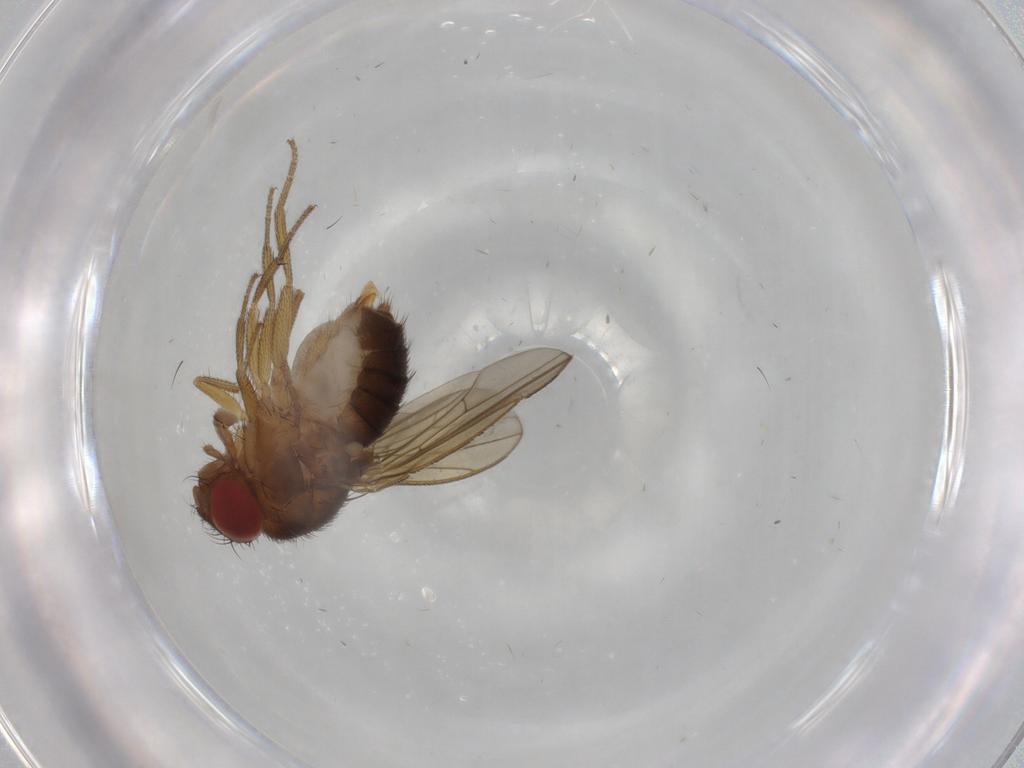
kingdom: Animalia
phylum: Arthropoda
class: Insecta
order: Diptera
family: Drosophilidae
